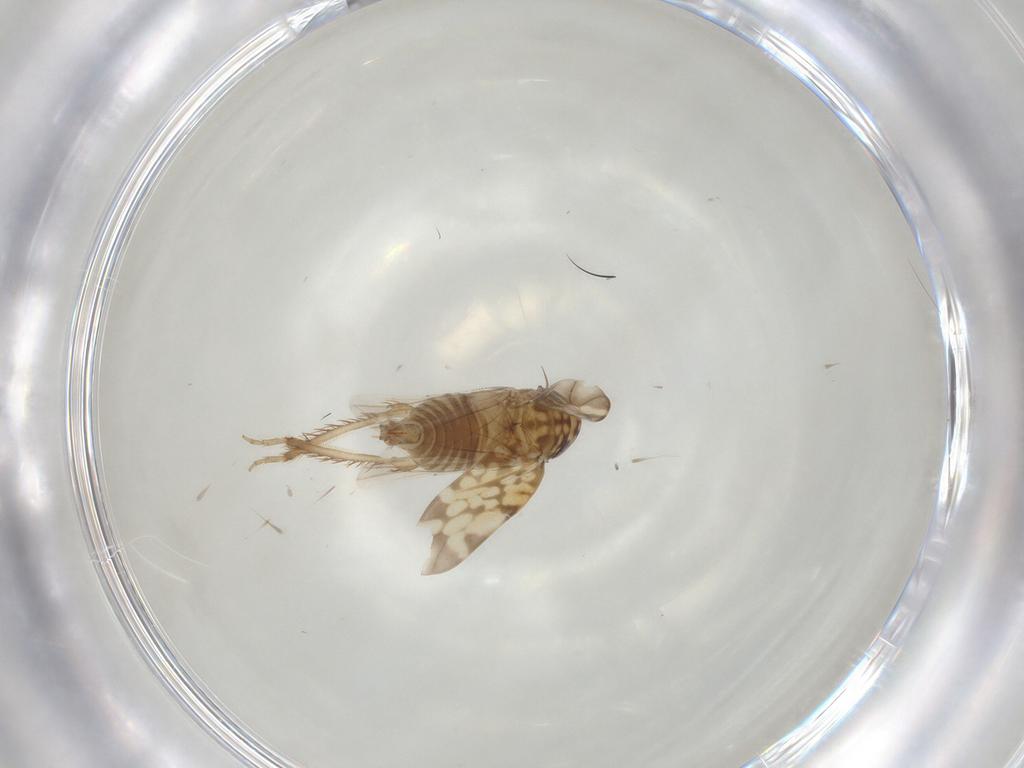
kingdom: Animalia
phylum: Arthropoda
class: Insecta
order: Hemiptera
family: Cicadellidae
